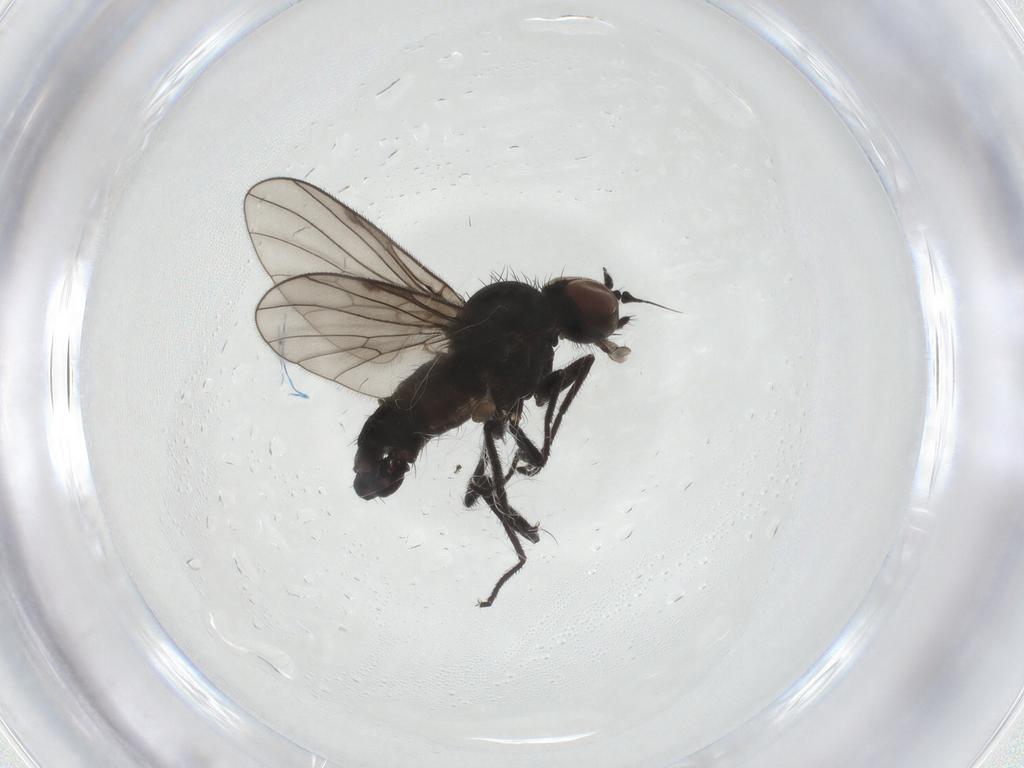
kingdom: Animalia
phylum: Arthropoda
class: Insecta
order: Diptera
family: Dolichopodidae
